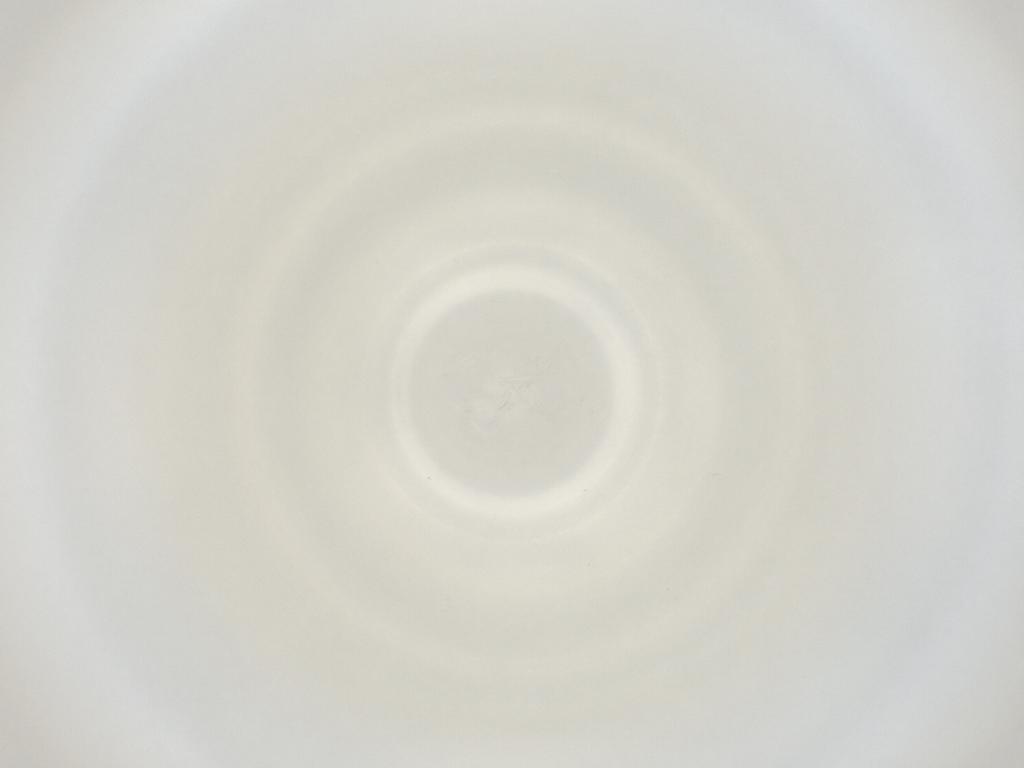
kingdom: Animalia
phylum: Arthropoda
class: Insecta
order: Diptera
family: Cecidomyiidae
